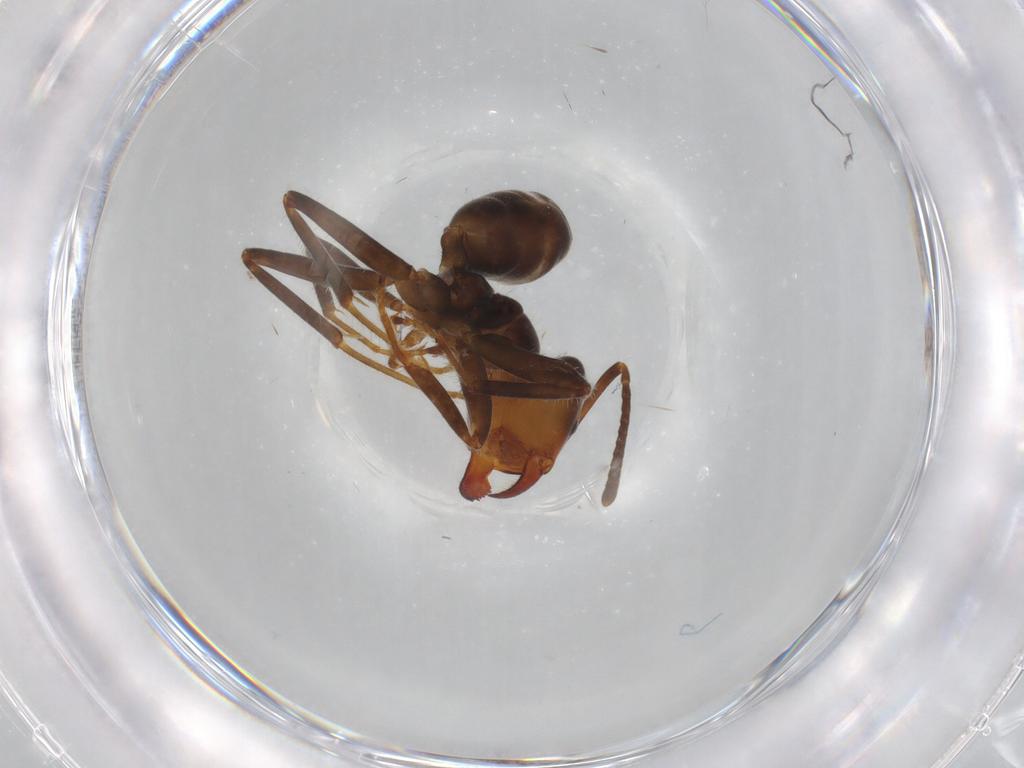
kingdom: Animalia
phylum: Arthropoda
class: Insecta
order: Hymenoptera
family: Formicidae
